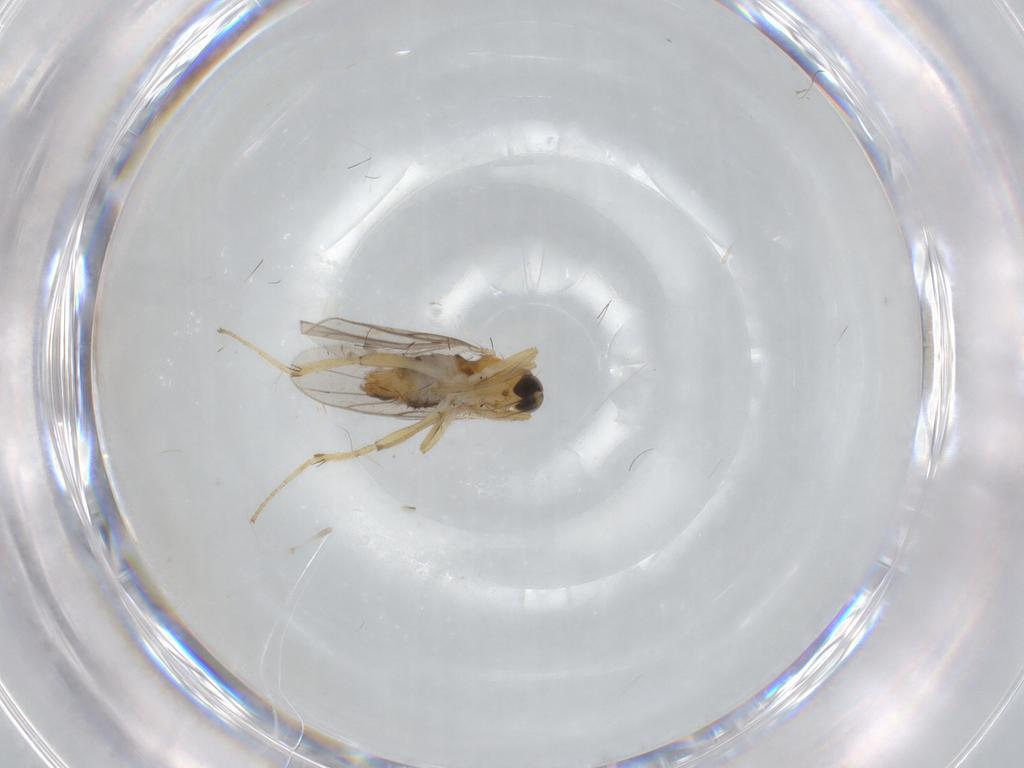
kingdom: Animalia
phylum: Arthropoda
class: Insecta
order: Diptera
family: Hybotidae
